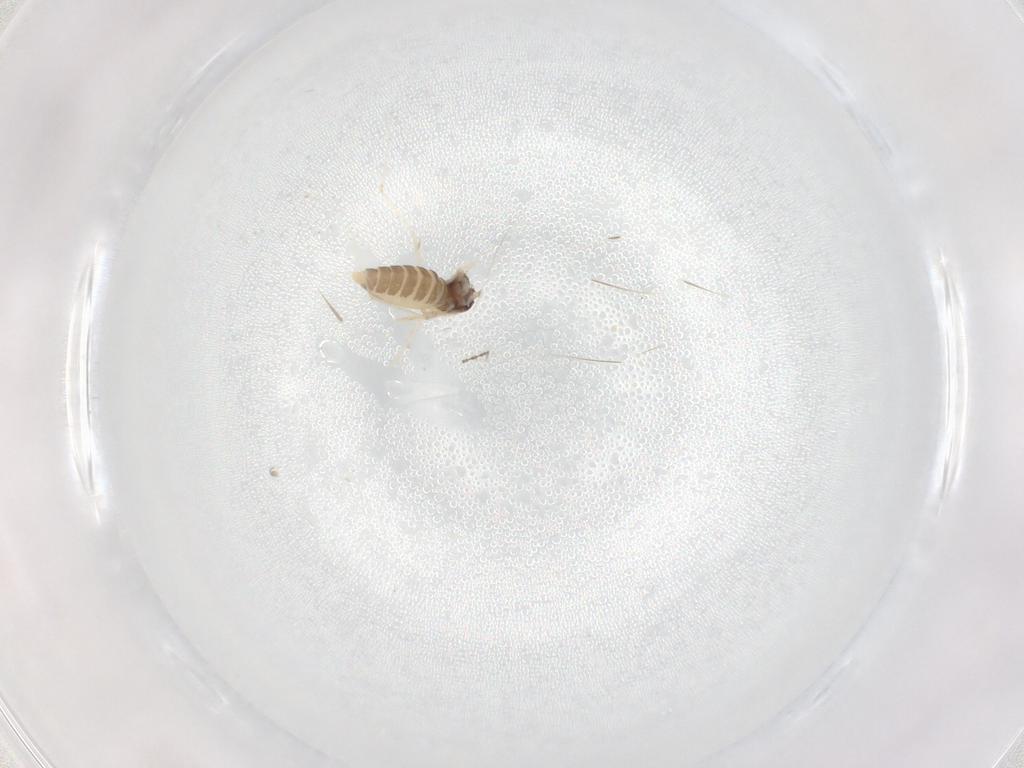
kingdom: Animalia
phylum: Arthropoda
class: Insecta
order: Diptera
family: Cecidomyiidae
